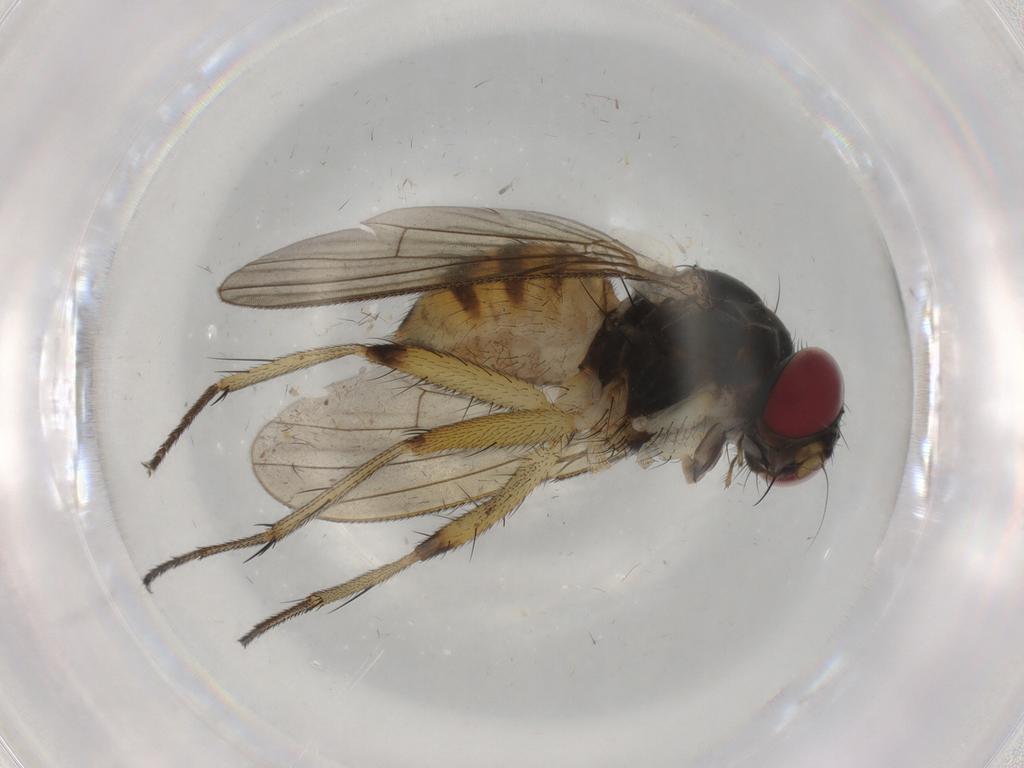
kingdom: Animalia
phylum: Arthropoda
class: Insecta
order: Diptera
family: Muscidae
